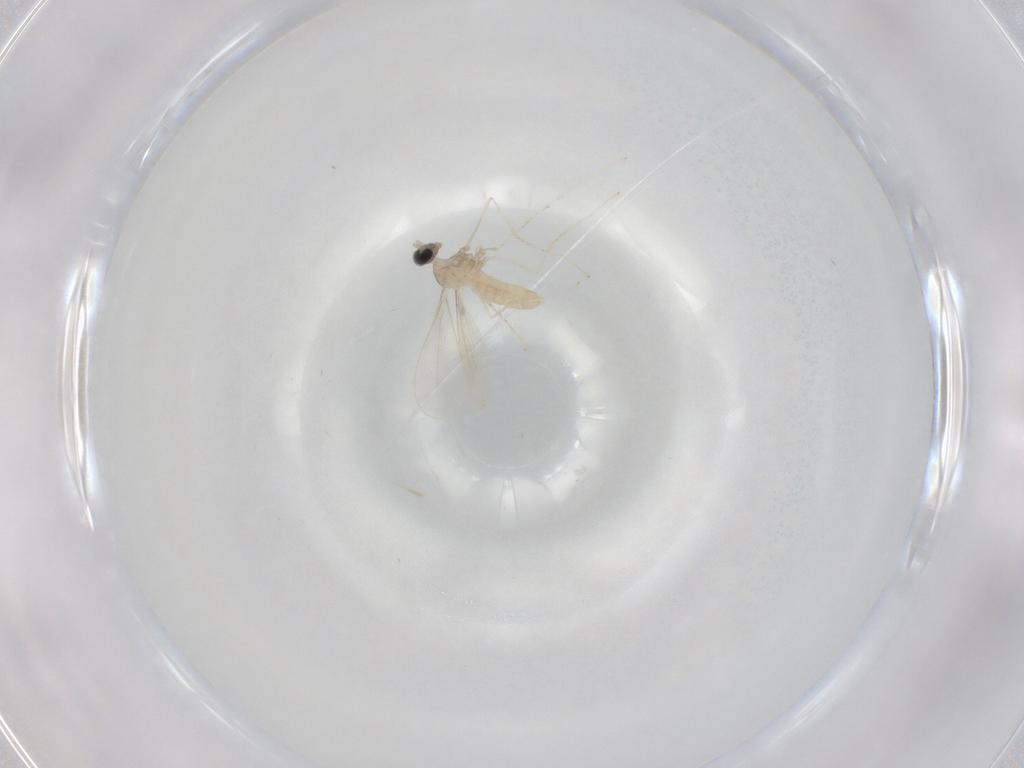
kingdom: Animalia
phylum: Arthropoda
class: Insecta
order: Diptera
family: Cecidomyiidae
